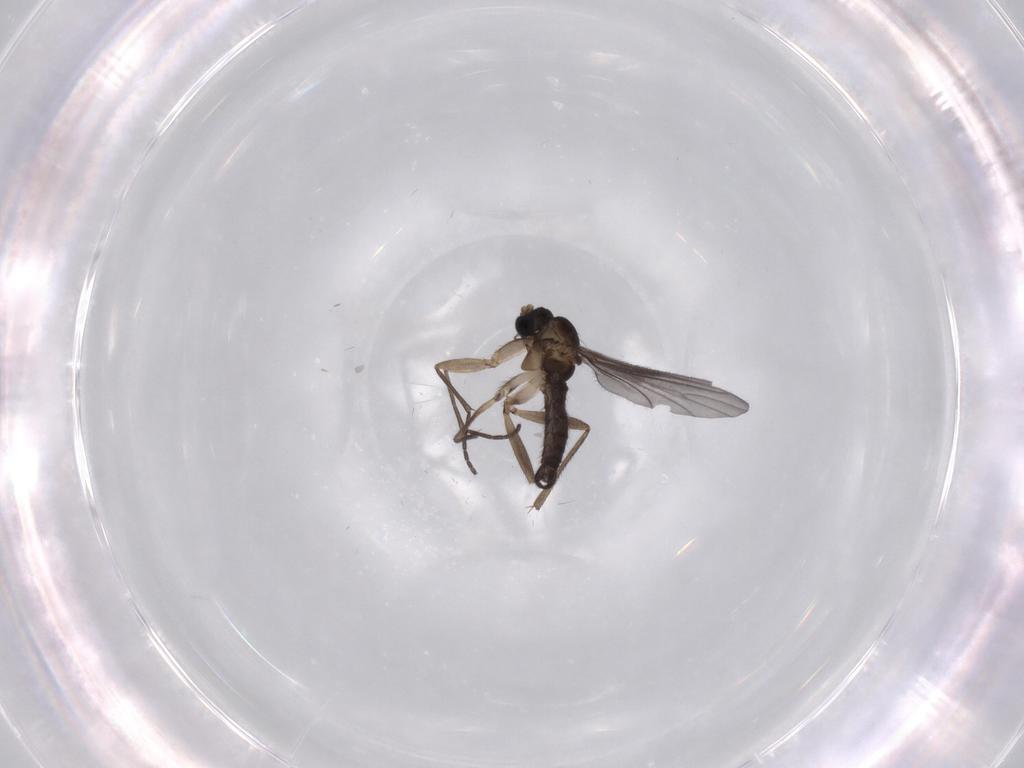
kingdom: Animalia
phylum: Arthropoda
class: Insecta
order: Diptera
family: Sciaridae
